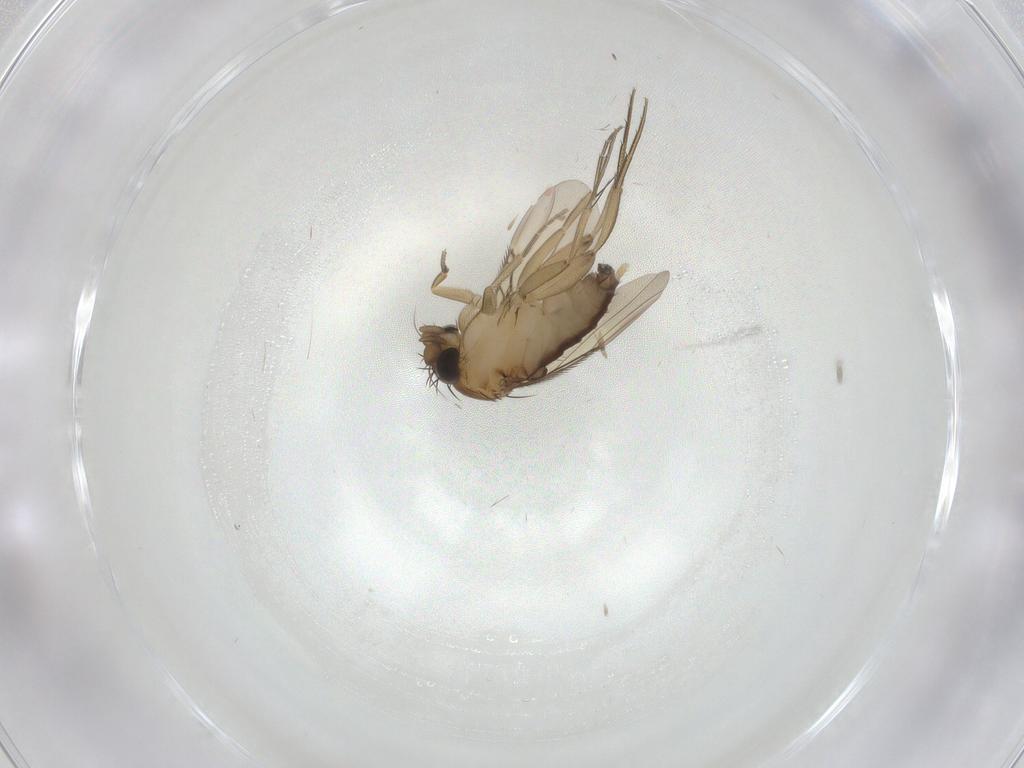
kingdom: Animalia
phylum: Arthropoda
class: Insecta
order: Diptera
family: Phoridae
